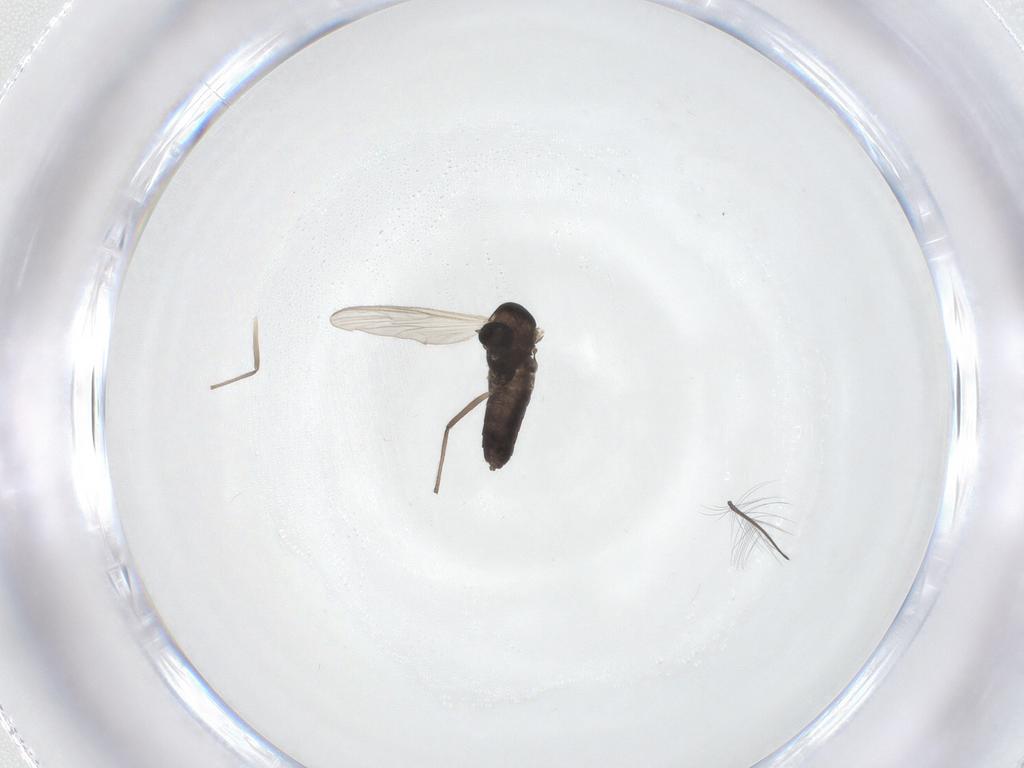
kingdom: Animalia
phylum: Arthropoda
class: Insecta
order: Diptera
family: Chironomidae
